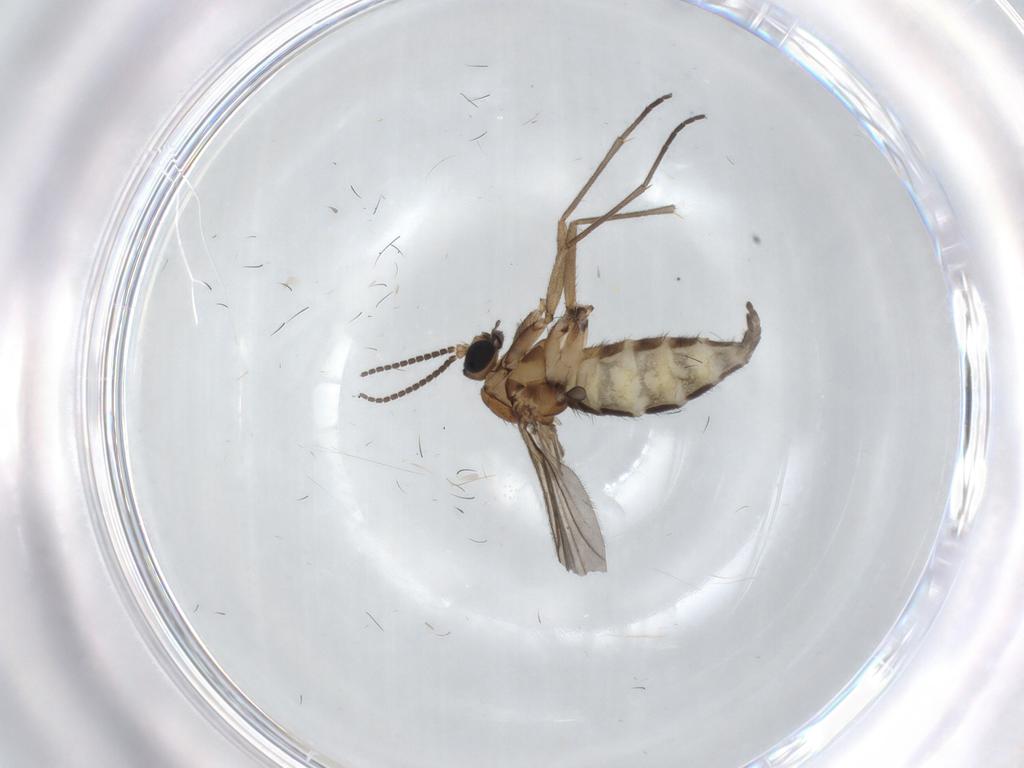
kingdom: Animalia
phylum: Arthropoda
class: Insecta
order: Diptera
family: Sciaridae
